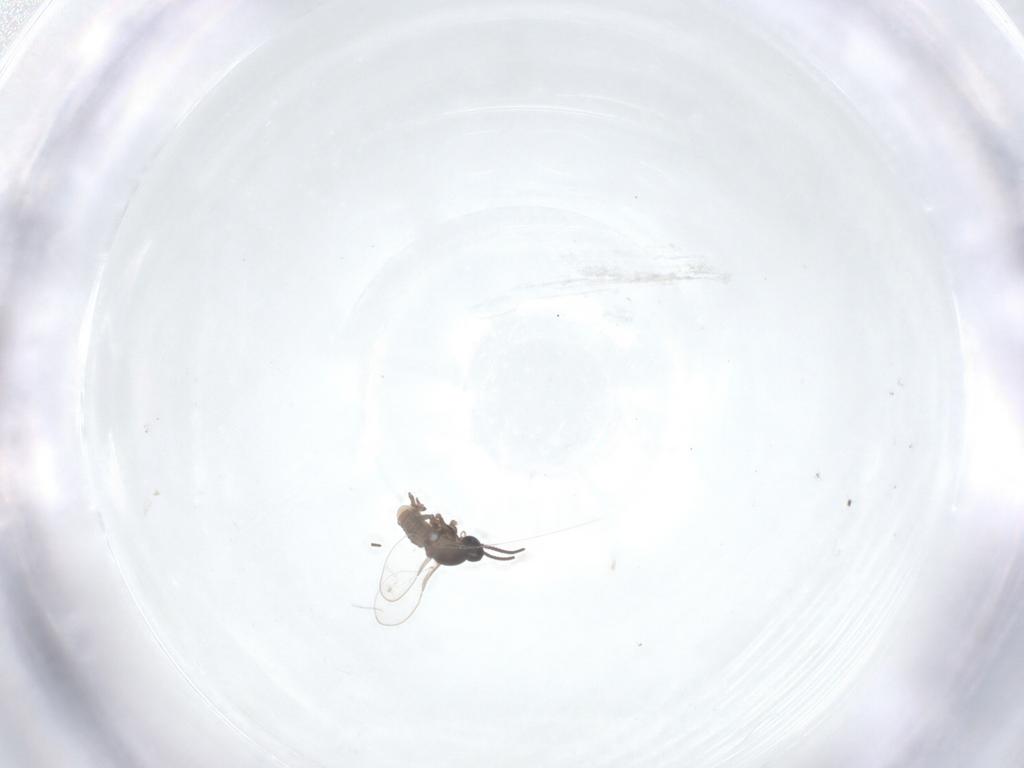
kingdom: Animalia
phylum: Arthropoda
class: Insecta
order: Diptera
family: Cecidomyiidae
